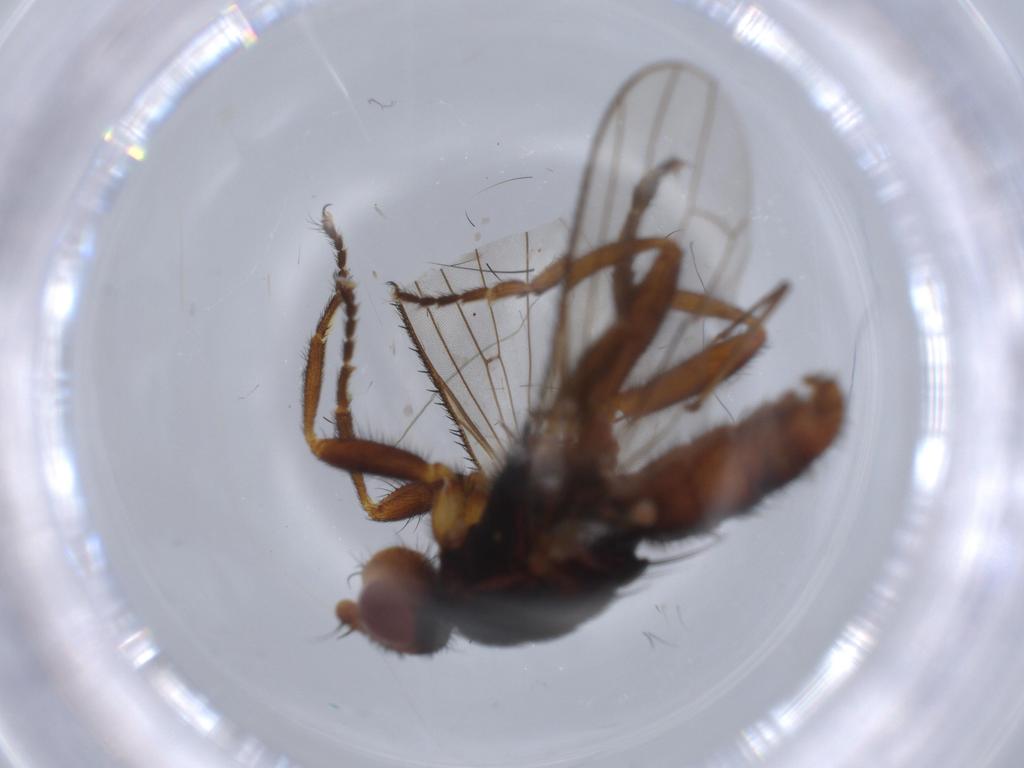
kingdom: Animalia
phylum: Arthropoda
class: Insecta
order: Diptera
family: Heleomyzidae
